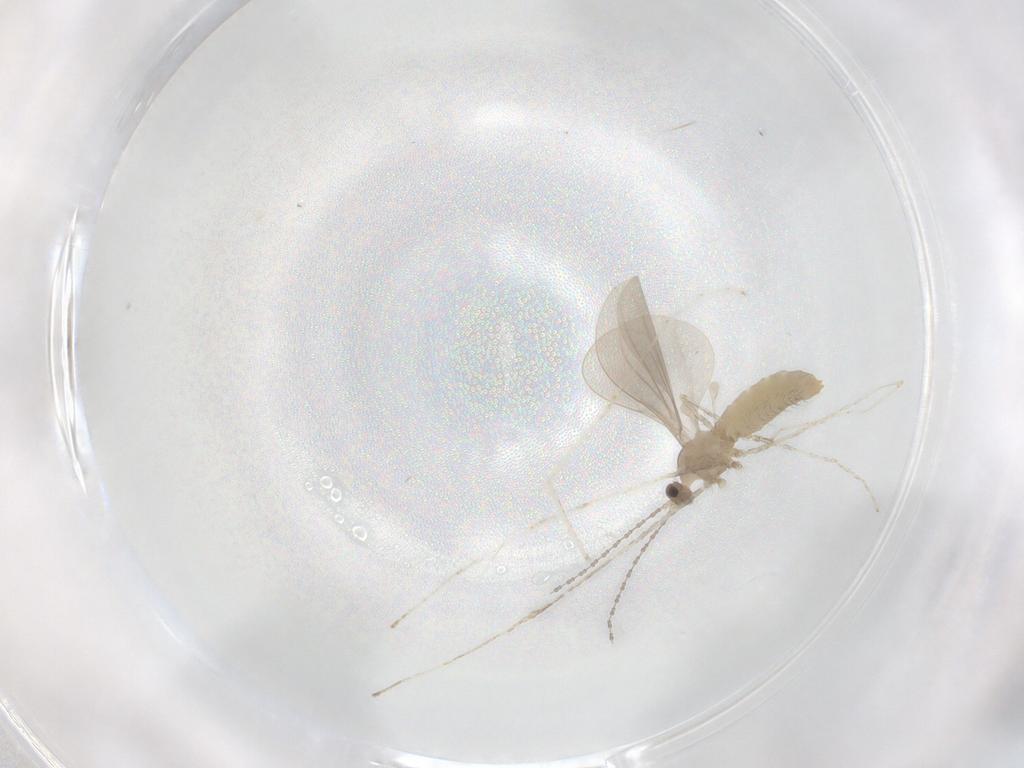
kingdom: Animalia
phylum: Arthropoda
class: Insecta
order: Diptera
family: Cecidomyiidae
